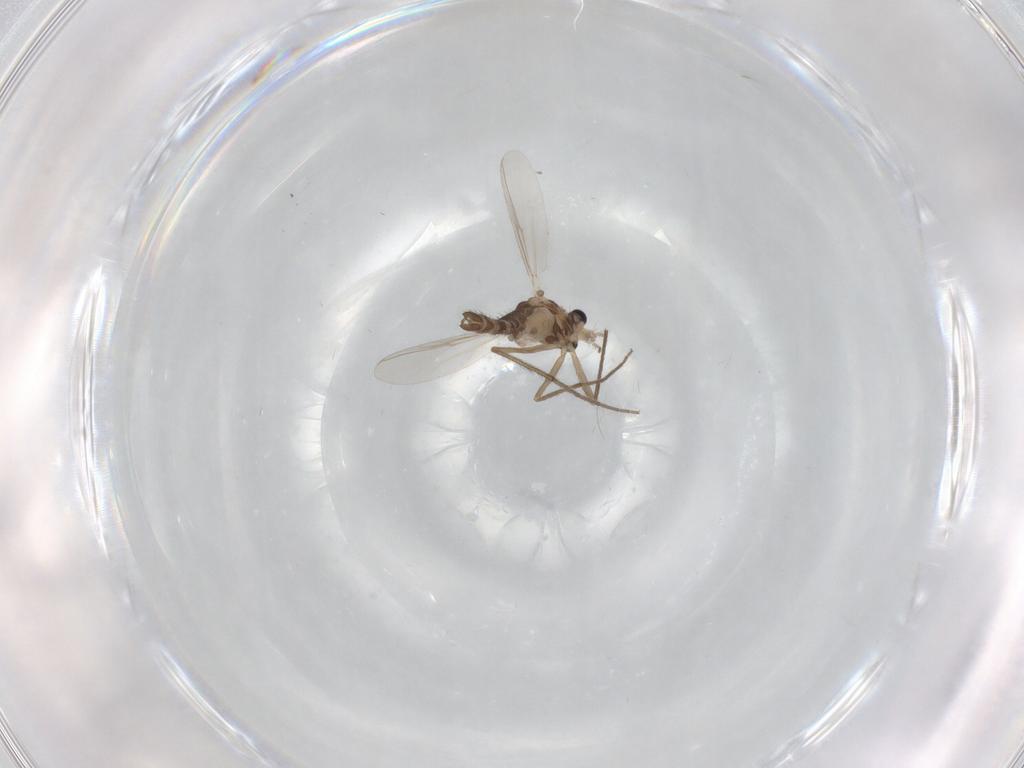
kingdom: Animalia
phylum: Arthropoda
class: Insecta
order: Diptera
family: Chironomidae
